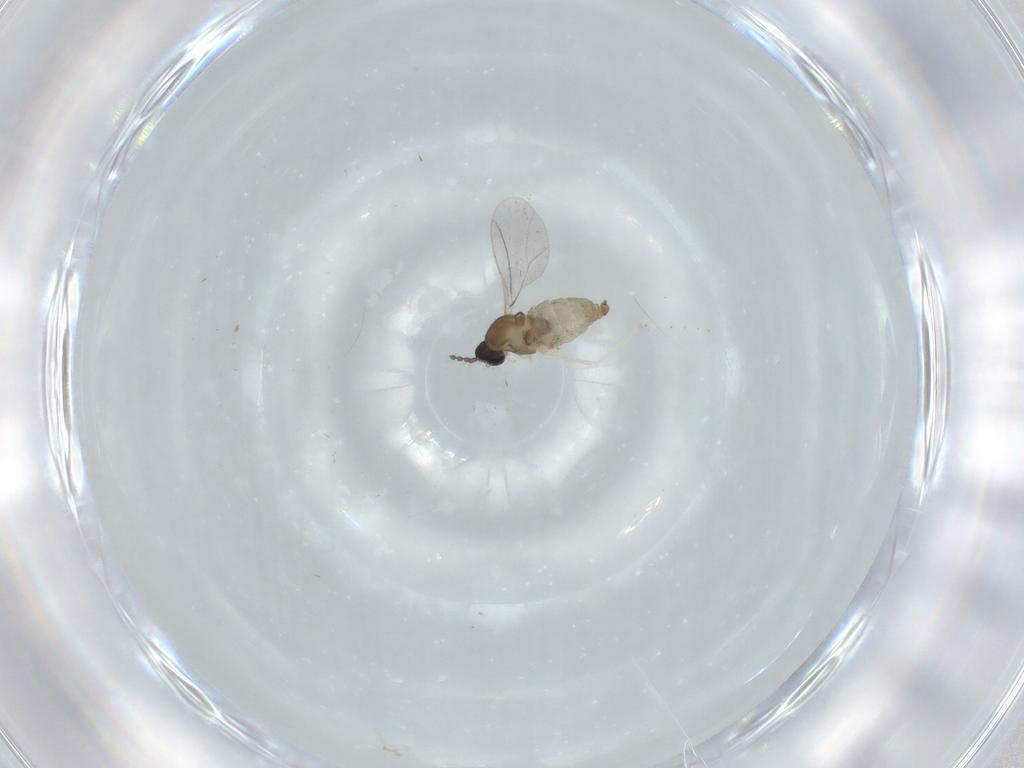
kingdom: Animalia
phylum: Arthropoda
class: Insecta
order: Diptera
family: Cecidomyiidae
